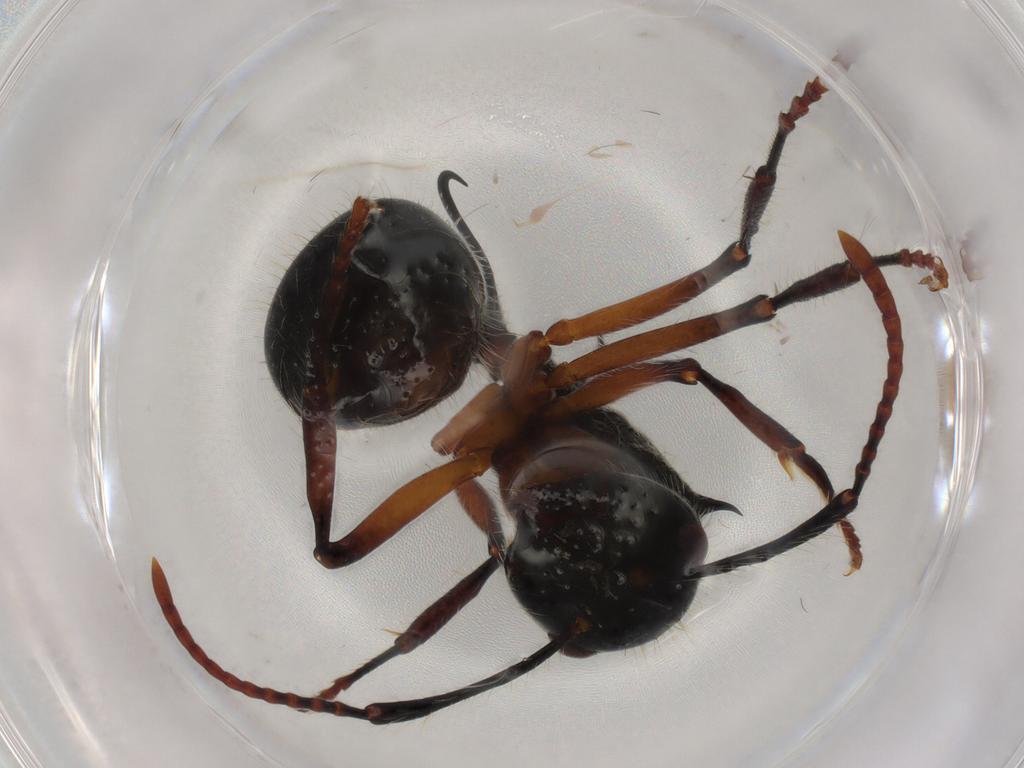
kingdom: Animalia
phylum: Arthropoda
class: Insecta
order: Hymenoptera
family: Formicidae
